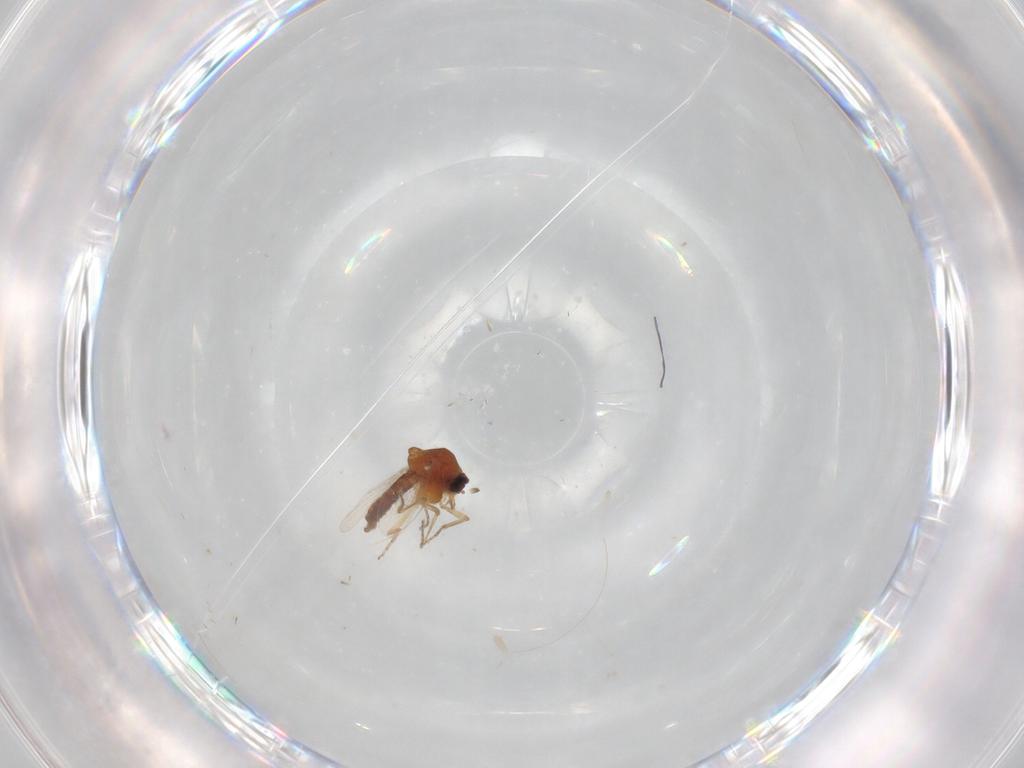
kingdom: Animalia
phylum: Arthropoda
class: Insecta
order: Diptera
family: Ceratopogonidae
